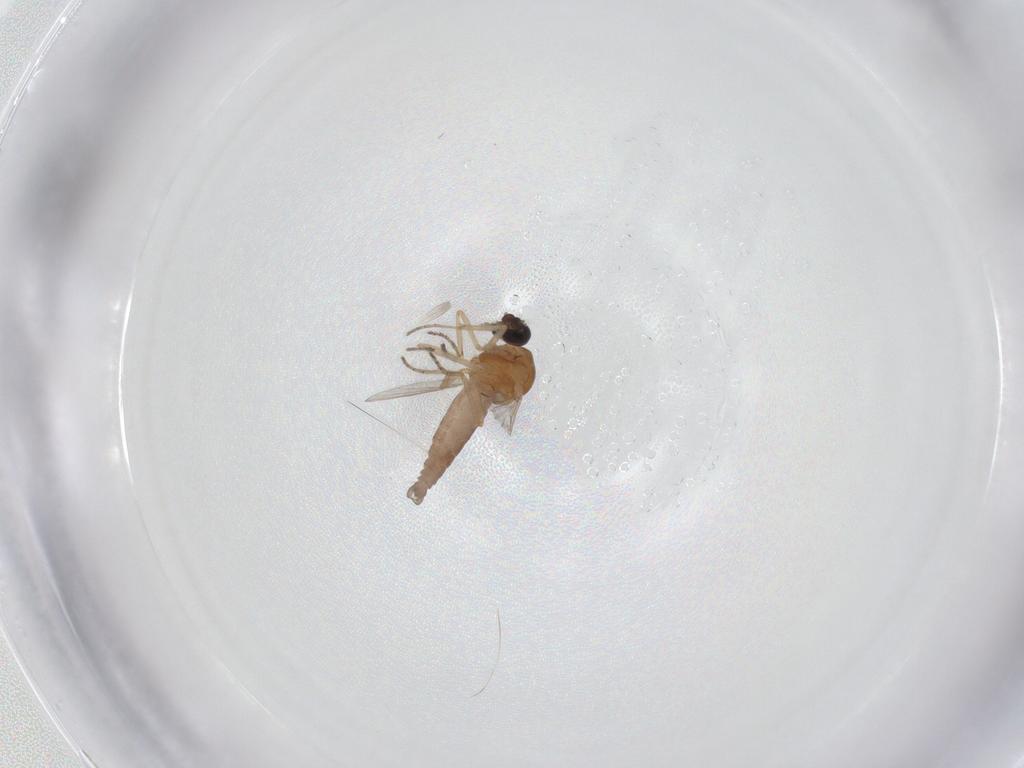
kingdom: Animalia
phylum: Arthropoda
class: Insecta
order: Diptera
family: Ceratopogonidae
